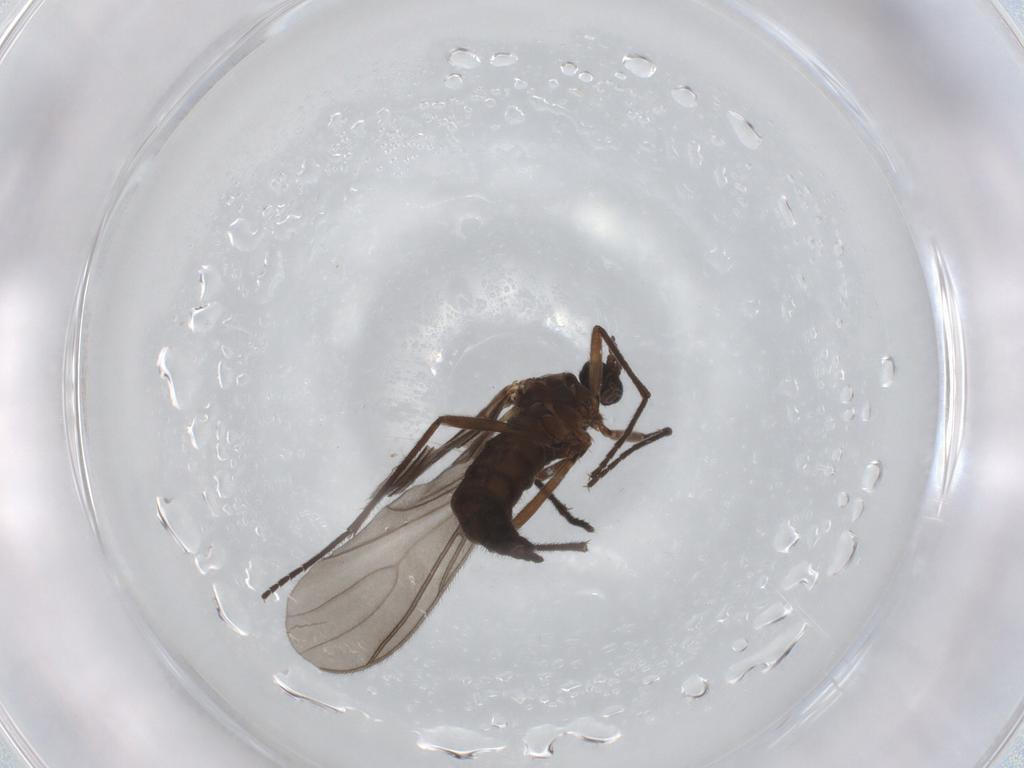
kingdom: Animalia
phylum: Arthropoda
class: Insecta
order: Diptera
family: Sciaridae
